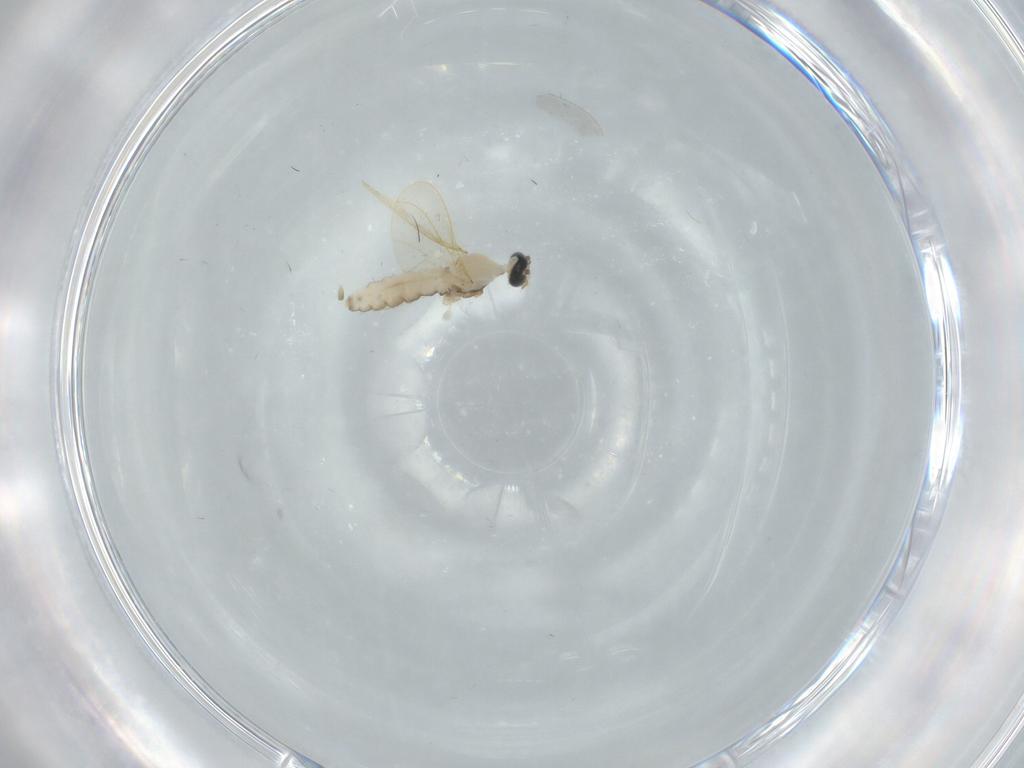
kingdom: Animalia
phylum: Arthropoda
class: Insecta
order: Diptera
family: Cecidomyiidae
